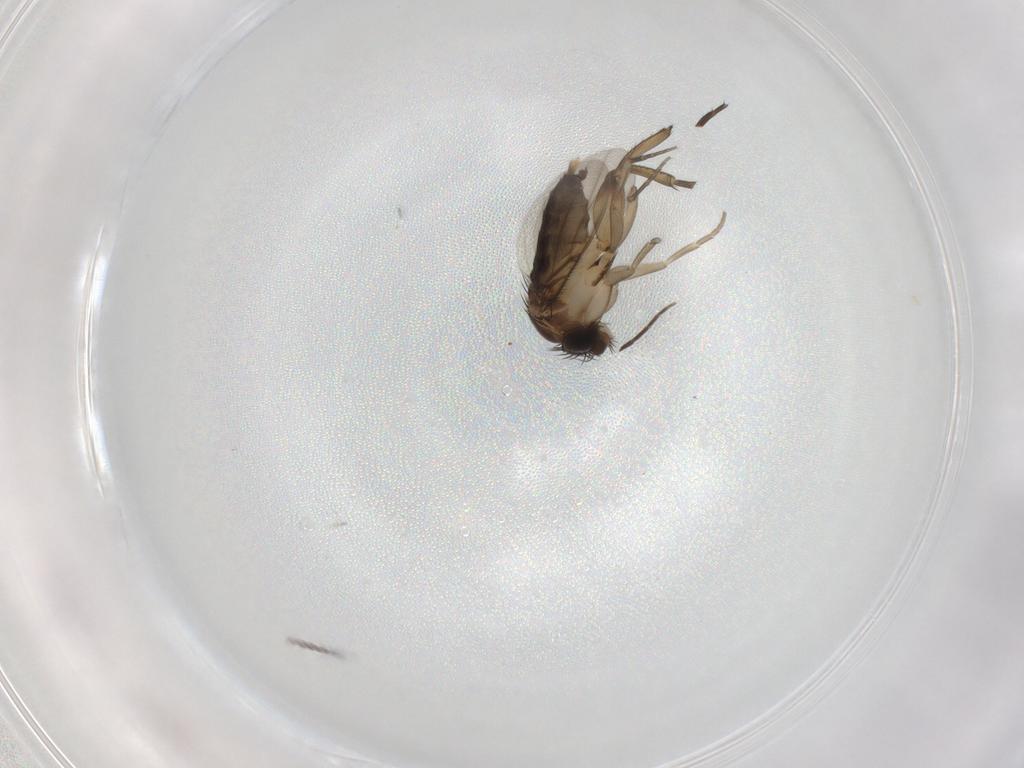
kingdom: Animalia
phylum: Arthropoda
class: Insecta
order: Diptera
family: Phoridae
